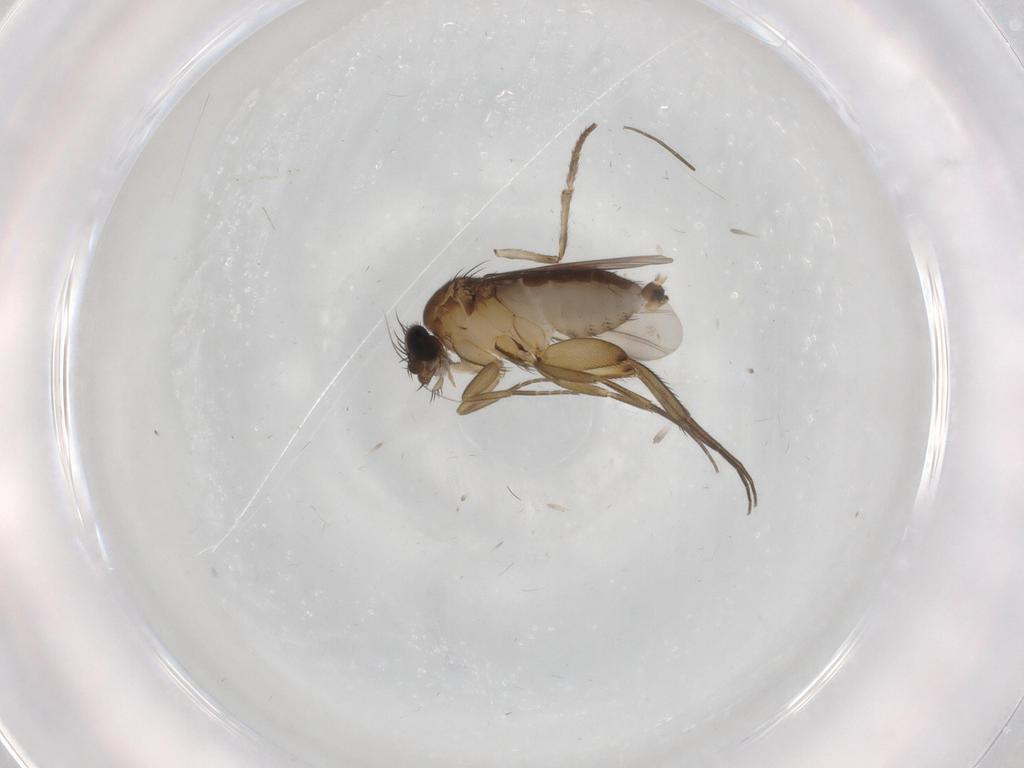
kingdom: Animalia
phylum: Arthropoda
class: Insecta
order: Diptera
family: Phoridae
